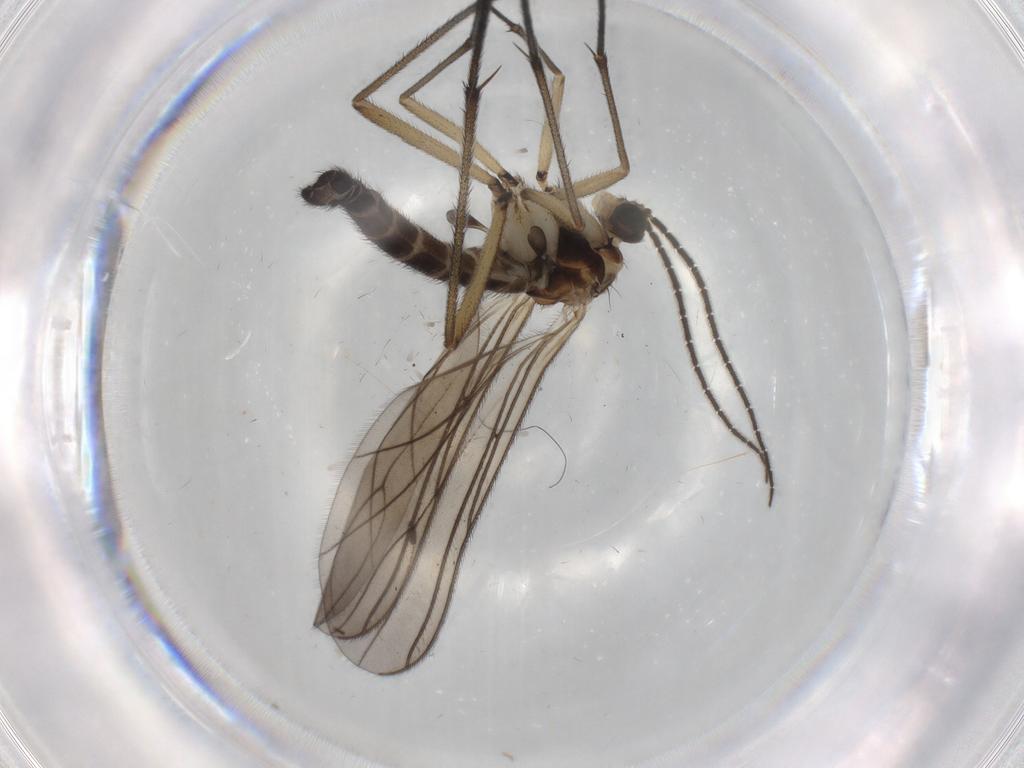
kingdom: Animalia
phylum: Arthropoda
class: Insecta
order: Diptera
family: Sciaridae
